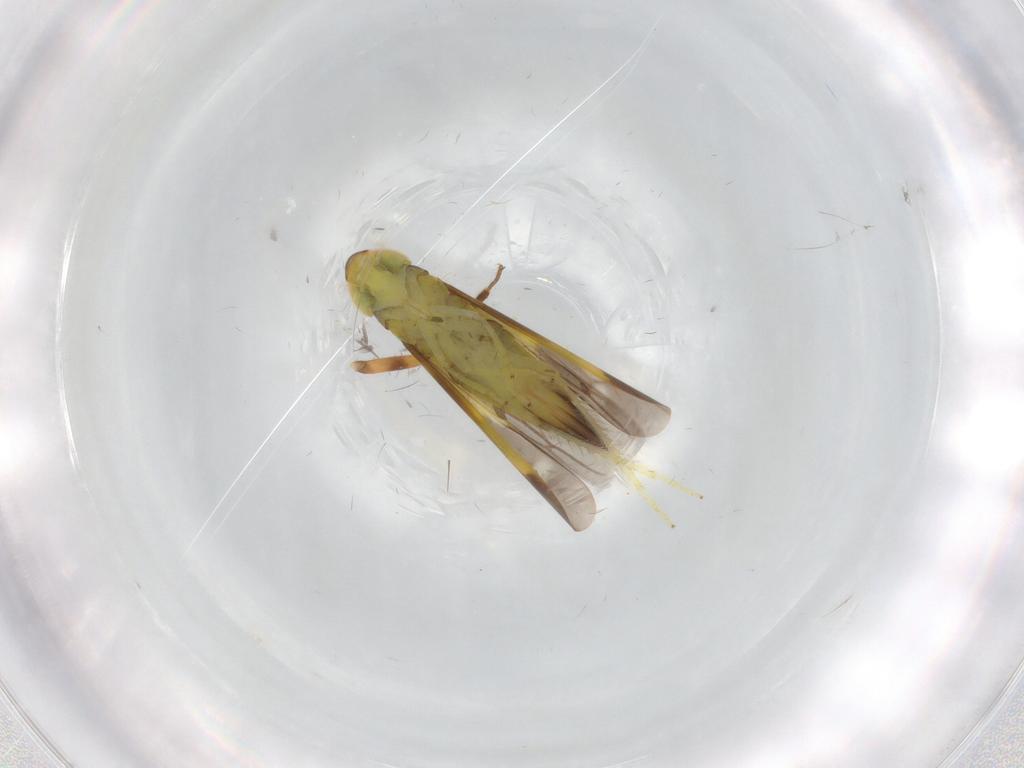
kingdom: Animalia
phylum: Arthropoda
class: Insecta
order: Hemiptera
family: Cicadellidae
